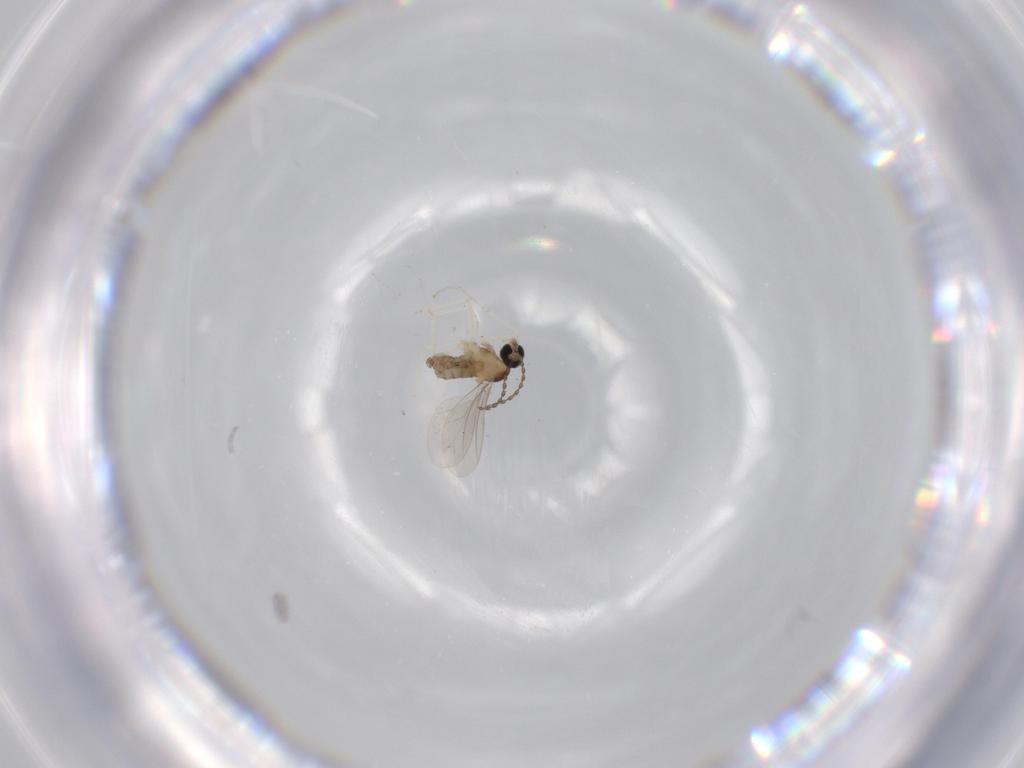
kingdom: Animalia
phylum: Arthropoda
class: Insecta
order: Diptera
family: Cecidomyiidae
